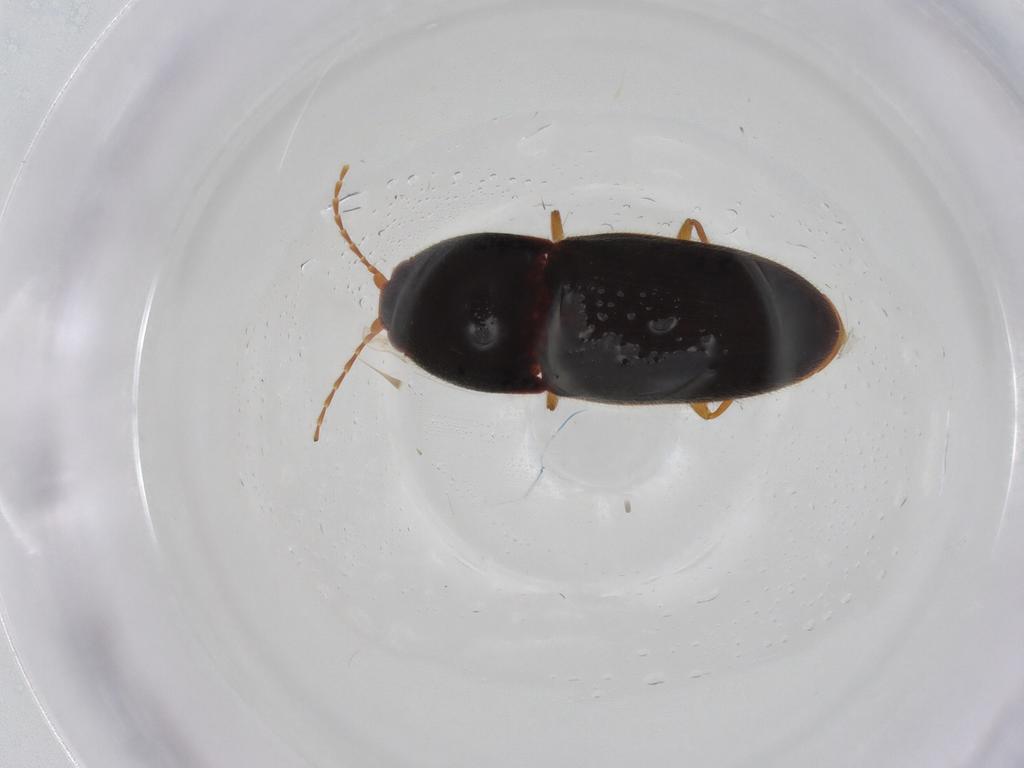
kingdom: Animalia
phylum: Arthropoda
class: Insecta
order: Coleoptera
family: Elateridae
